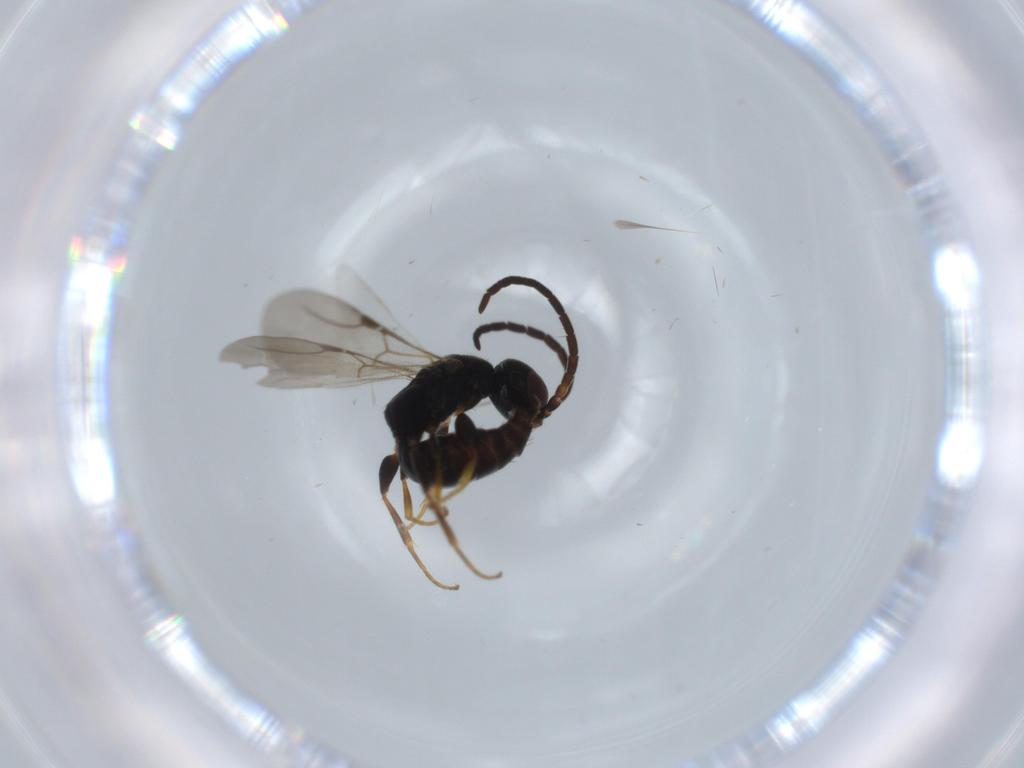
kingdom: Animalia
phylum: Arthropoda
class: Insecta
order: Hymenoptera
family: Bethylidae
